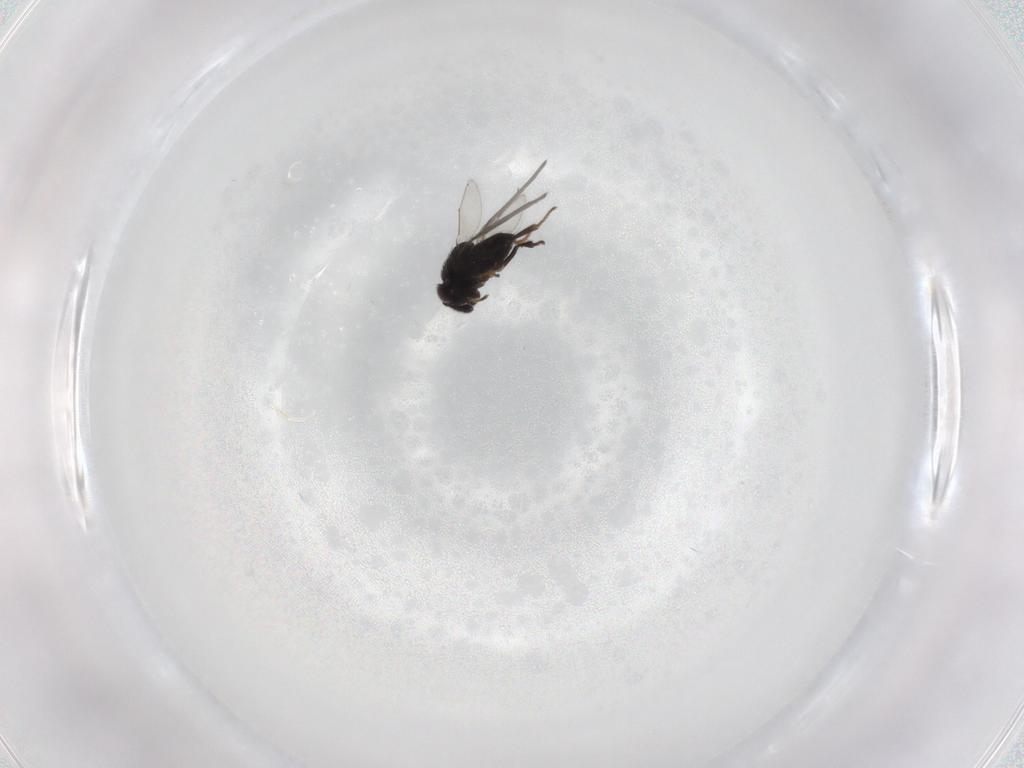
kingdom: Animalia
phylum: Arthropoda
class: Insecta
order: Hymenoptera
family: Encyrtidae
